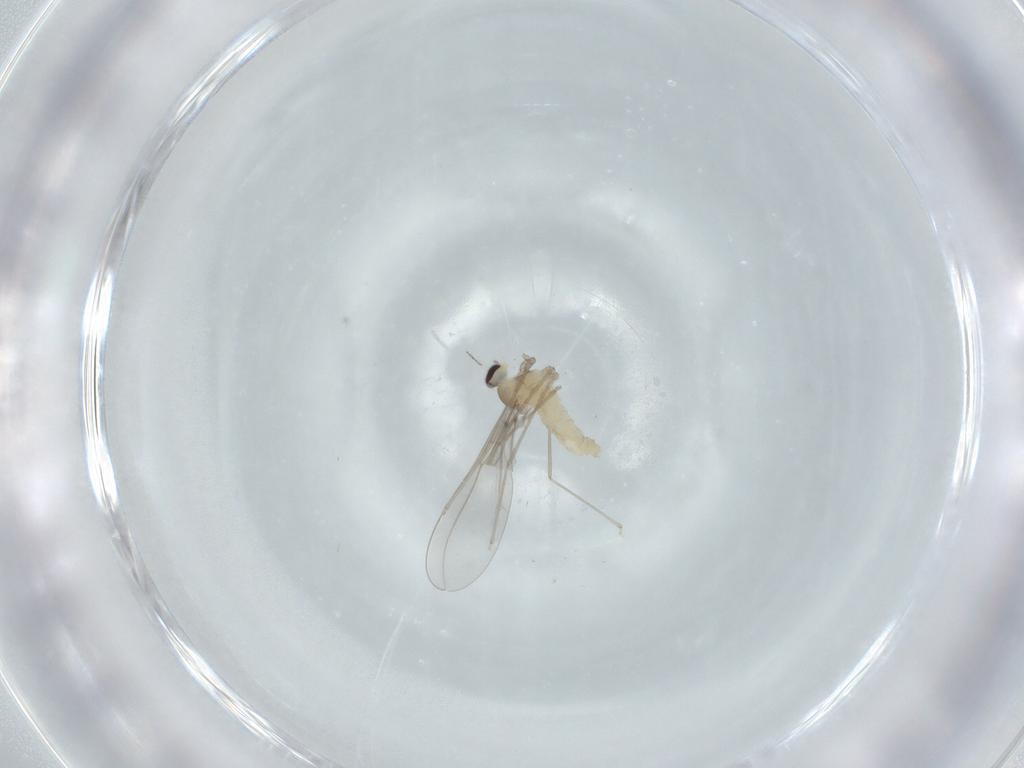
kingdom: Animalia
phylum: Arthropoda
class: Insecta
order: Diptera
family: Cecidomyiidae
